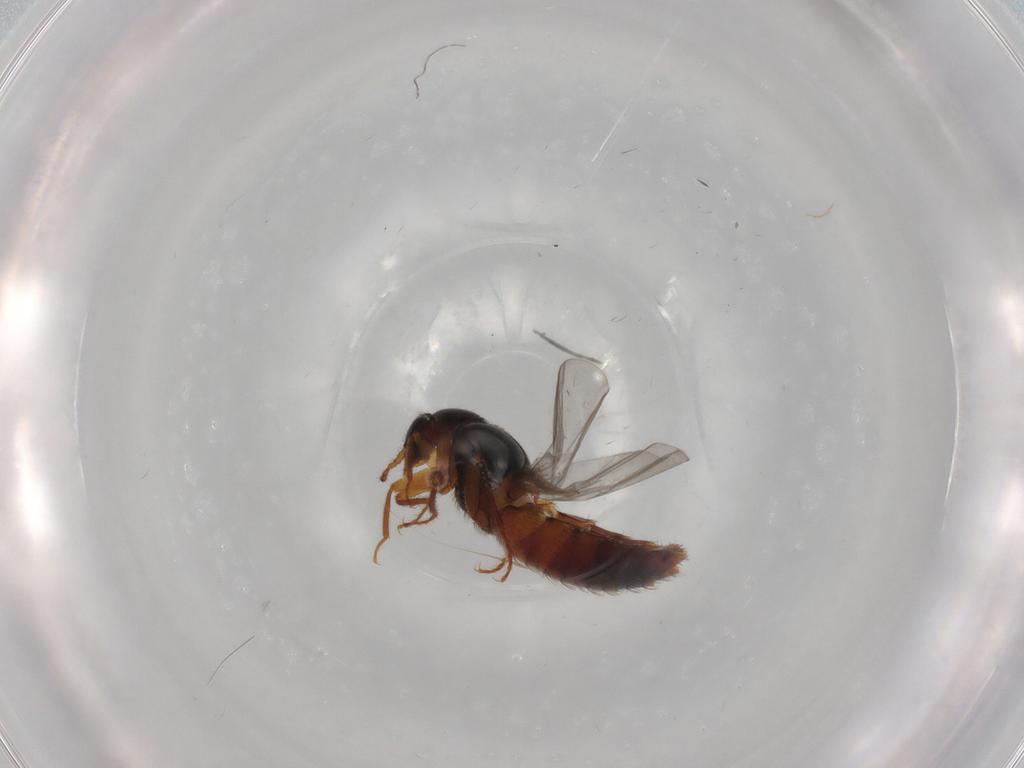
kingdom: Animalia
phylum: Arthropoda
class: Insecta
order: Coleoptera
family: Staphylinidae
